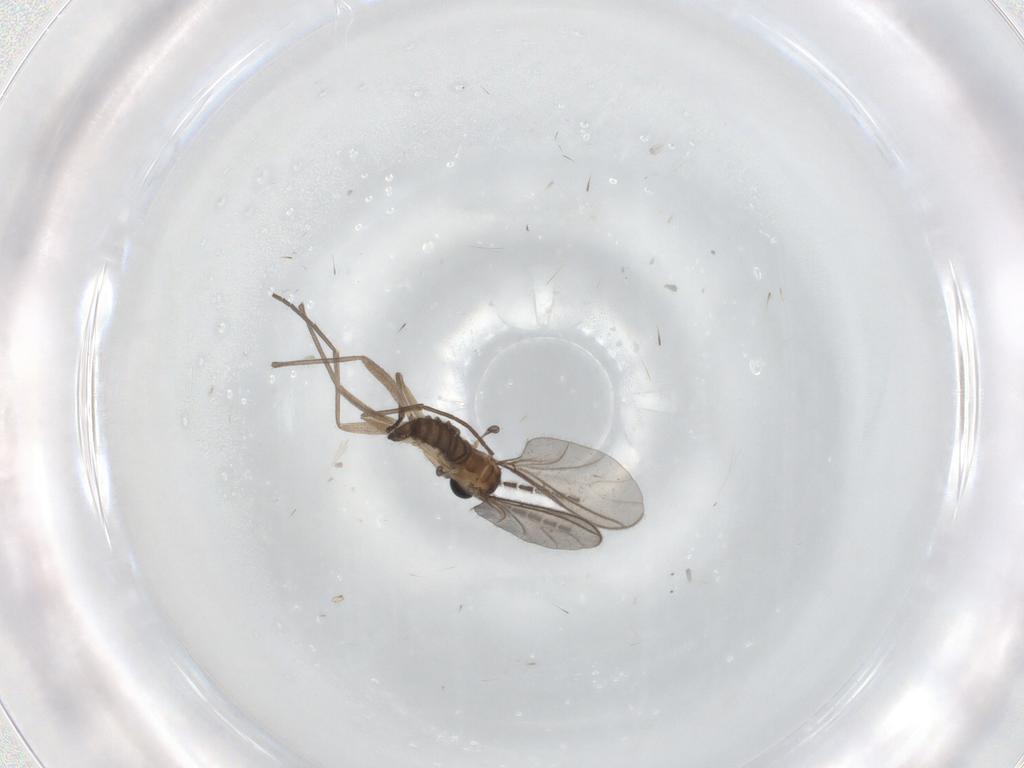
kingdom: Animalia
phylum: Arthropoda
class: Insecta
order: Diptera
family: Sciaridae
